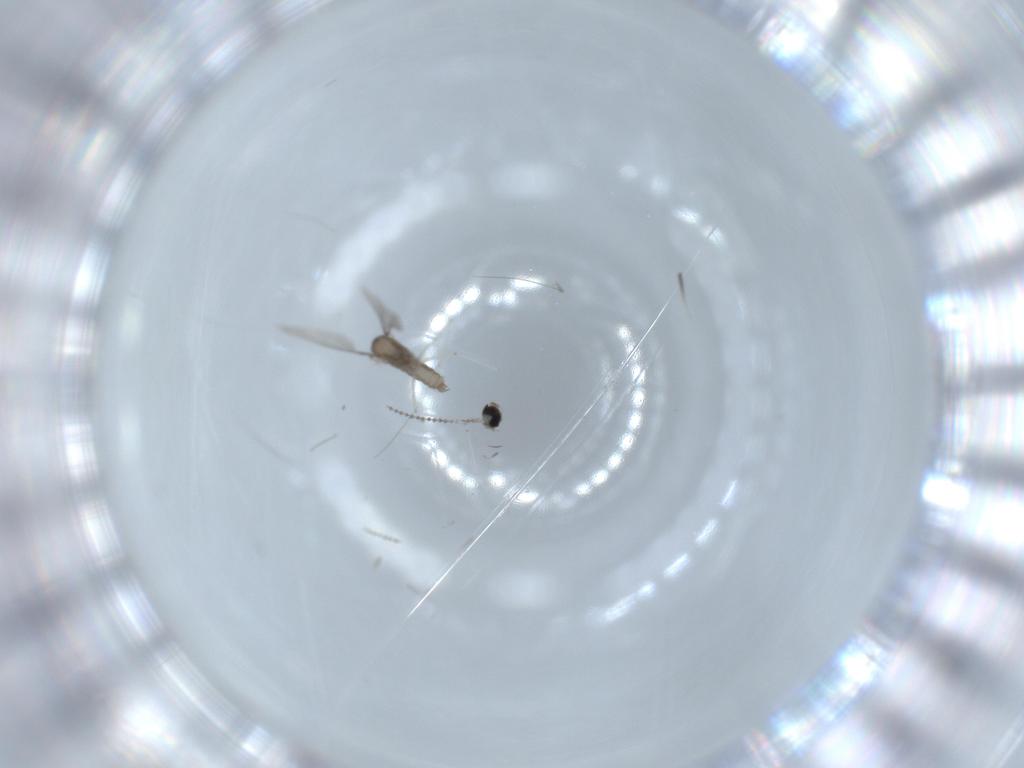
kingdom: Animalia
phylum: Arthropoda
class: Insecta
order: Diptera
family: Cecidomyiidae
